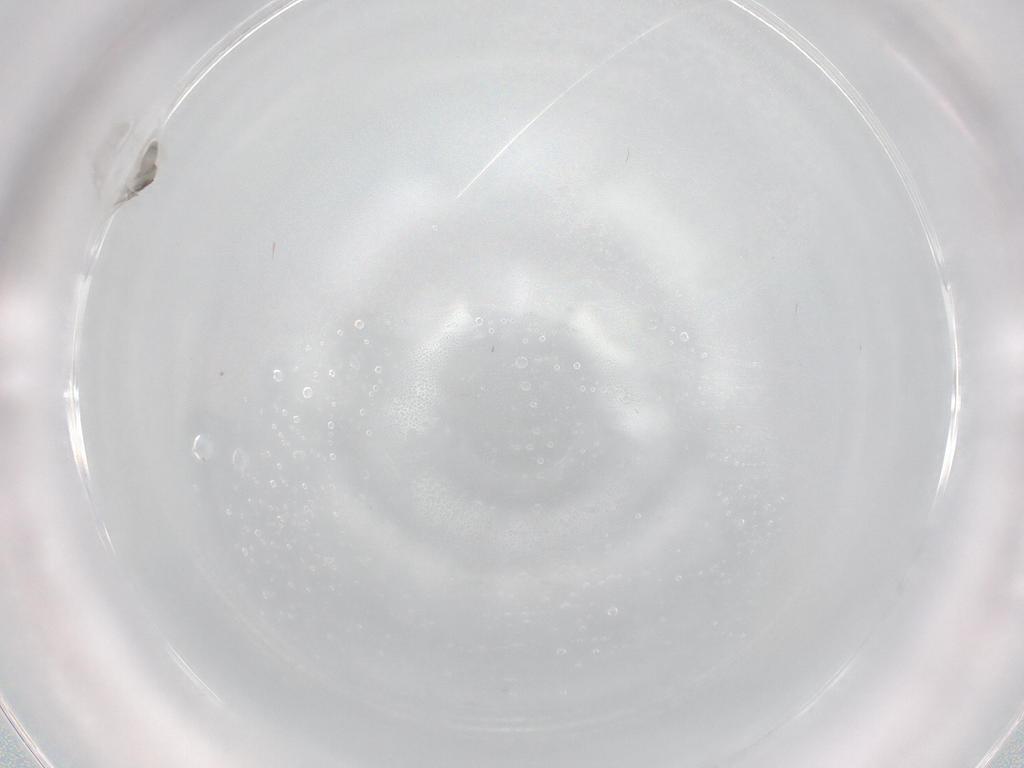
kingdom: Animalia
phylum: Arthropoda
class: Insecta
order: Diptera
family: Cecidomyiidae
